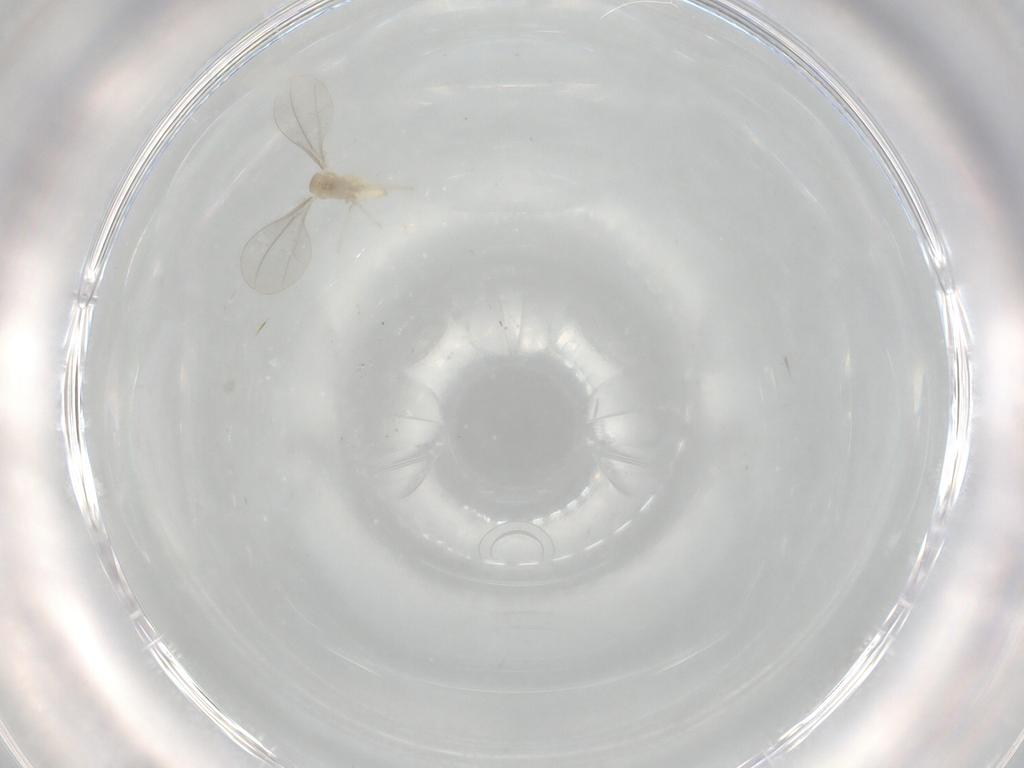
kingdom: Animalia
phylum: Arthropoda
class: Insecta
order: Diptera
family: Cecidomyiidae
